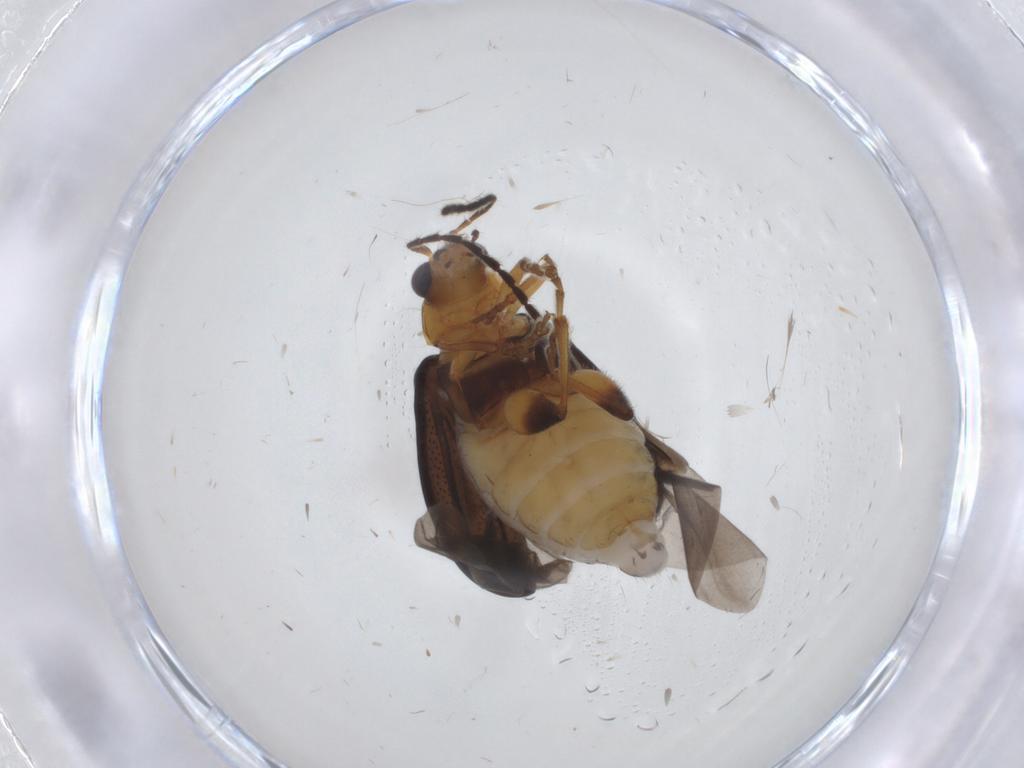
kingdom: Animalia
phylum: Arthropoda
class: Insecta
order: Coleoptera
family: Chrysomelidae
